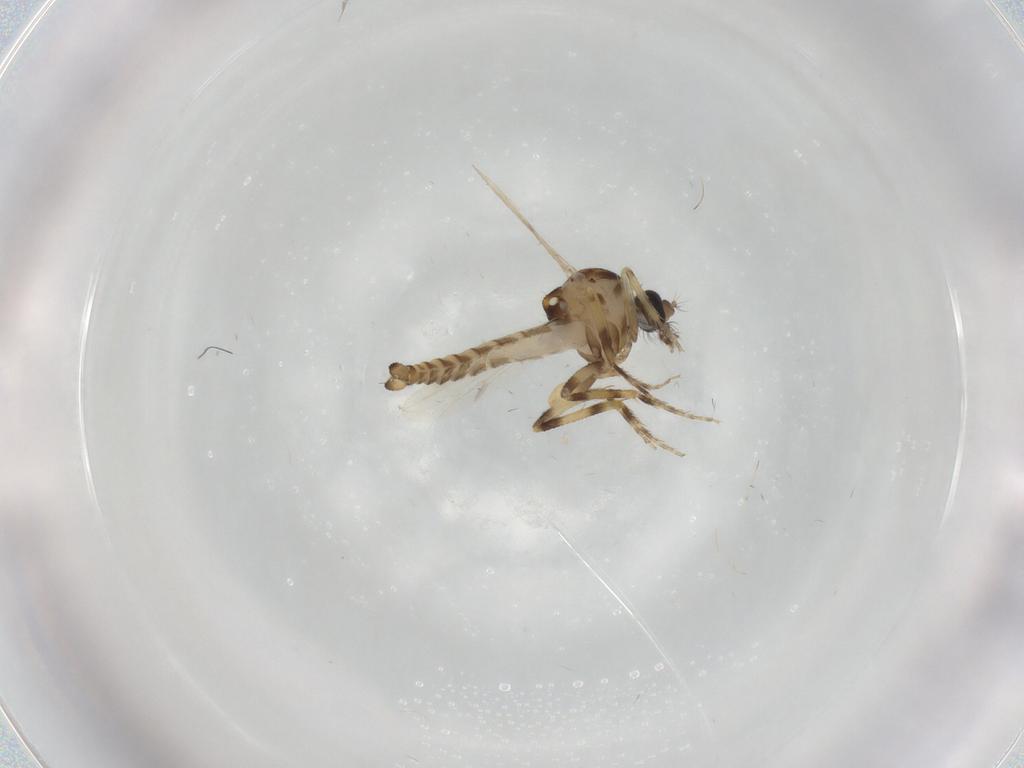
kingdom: Animalia
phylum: Arthropoda
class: Insecta
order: Diptera
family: Ceratopogonidae
